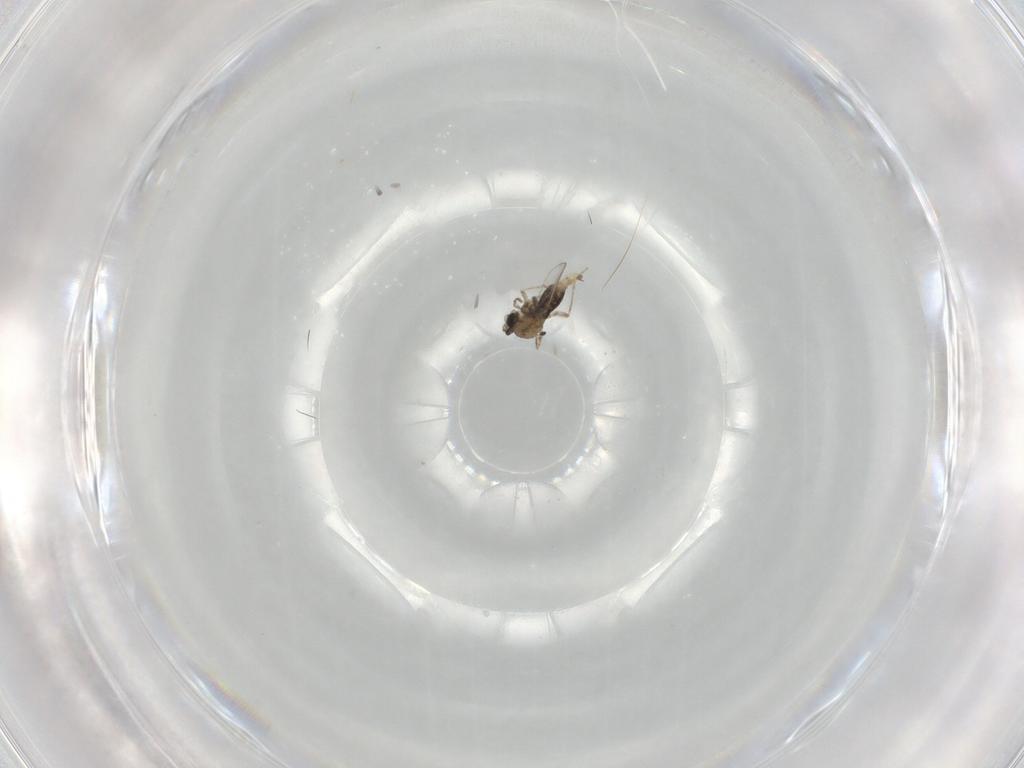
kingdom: Animalia
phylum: Arthropoda
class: Insecta
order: Diptera
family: Cecidomyiidae
